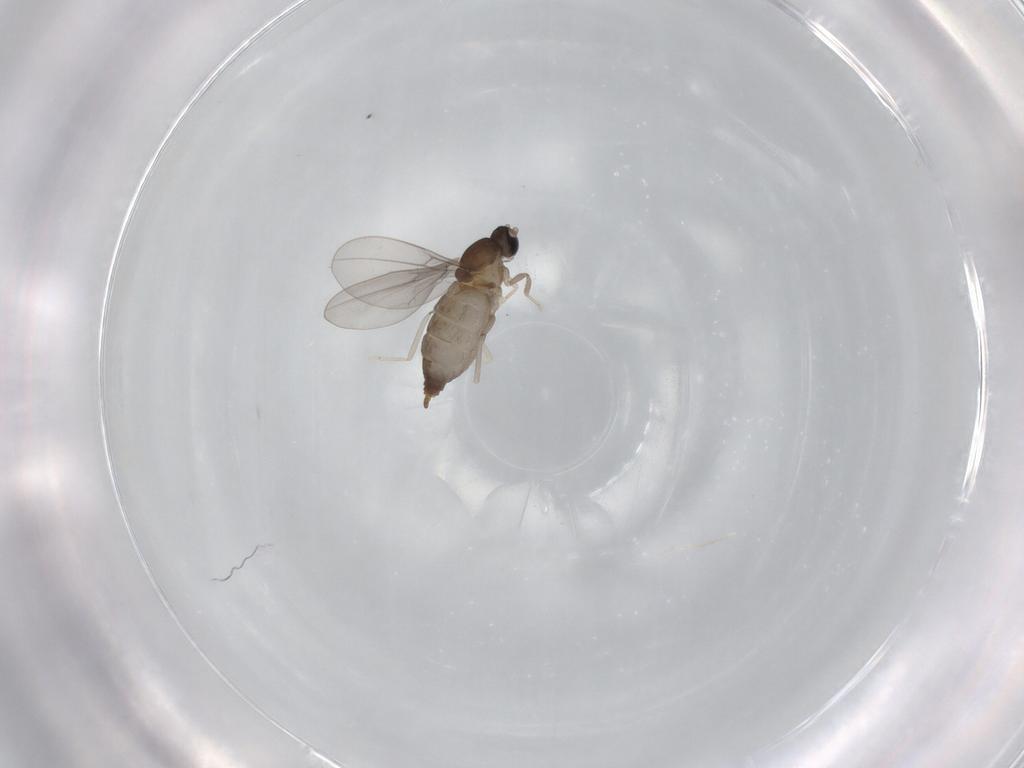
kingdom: Animalia
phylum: Arthropoda
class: Insecta
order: Diptera
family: Cecidomyiidae
